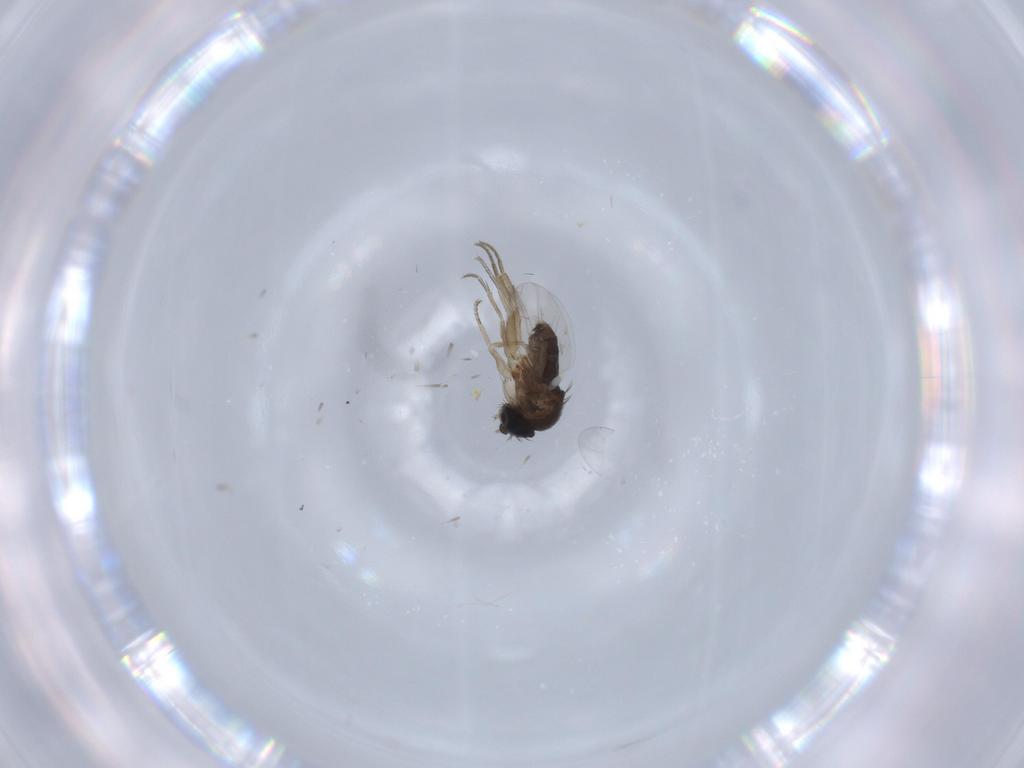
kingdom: Animalia
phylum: Arthropoda
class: Insecta
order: Diptera
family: Phoridae
